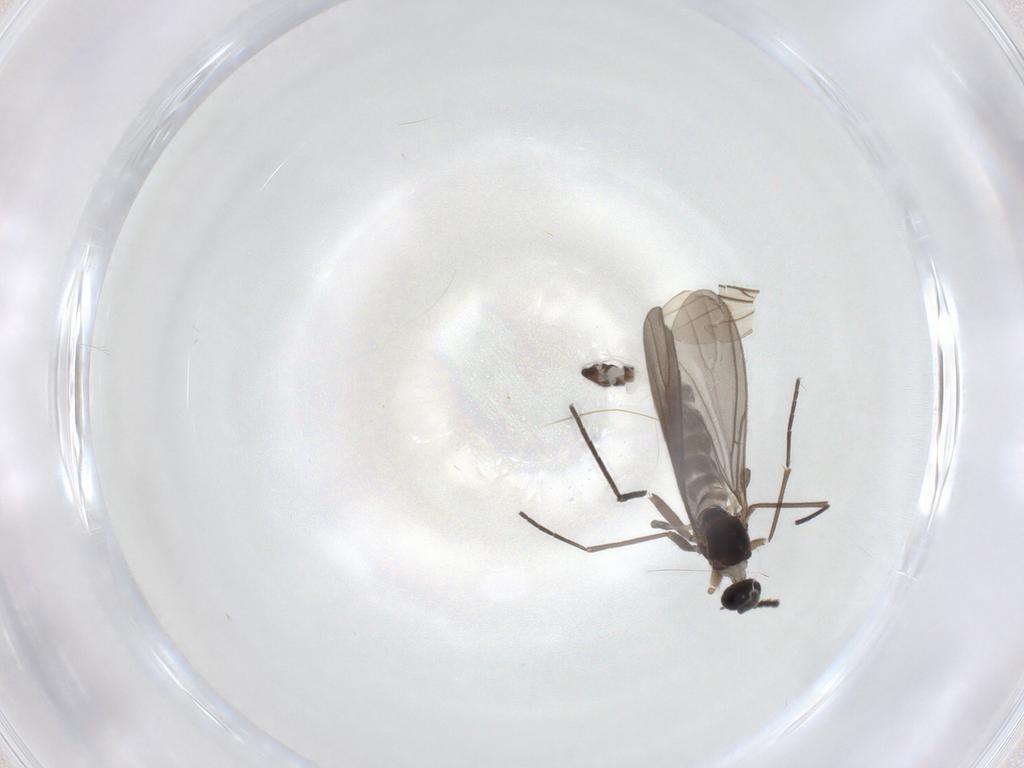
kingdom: Animalia
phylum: Arthropoda
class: Insecta
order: Diptera
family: Sciaridae
